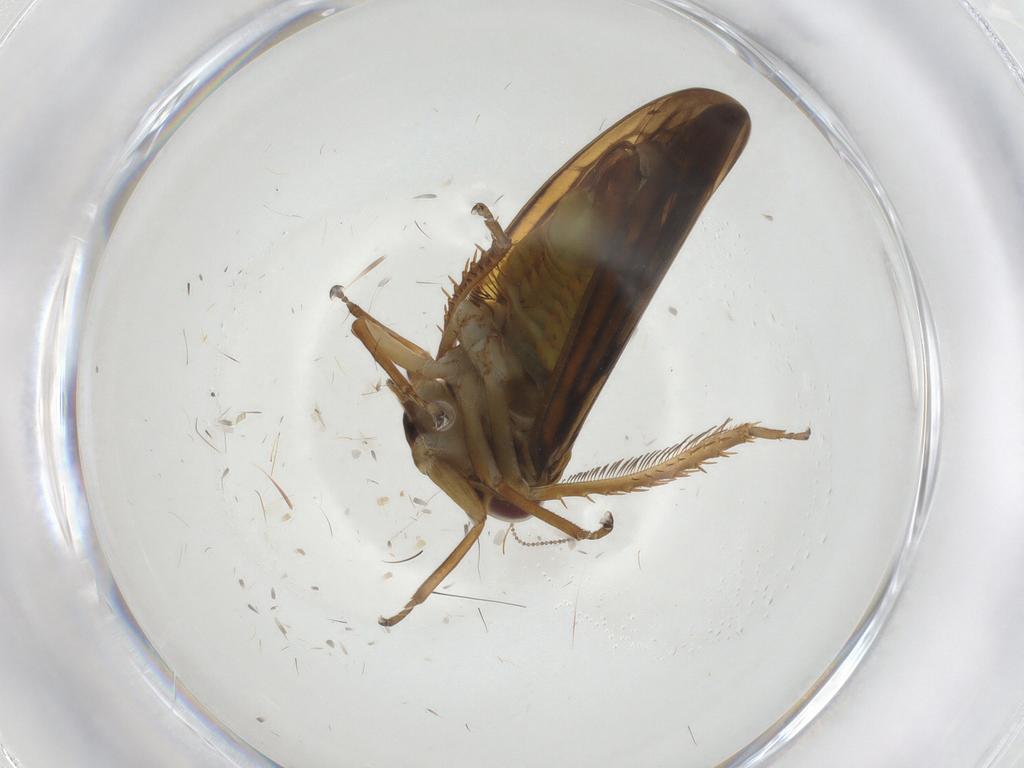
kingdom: Animalia
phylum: Arthropoda
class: Insecta
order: Hemiptera
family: Cicadellidae
